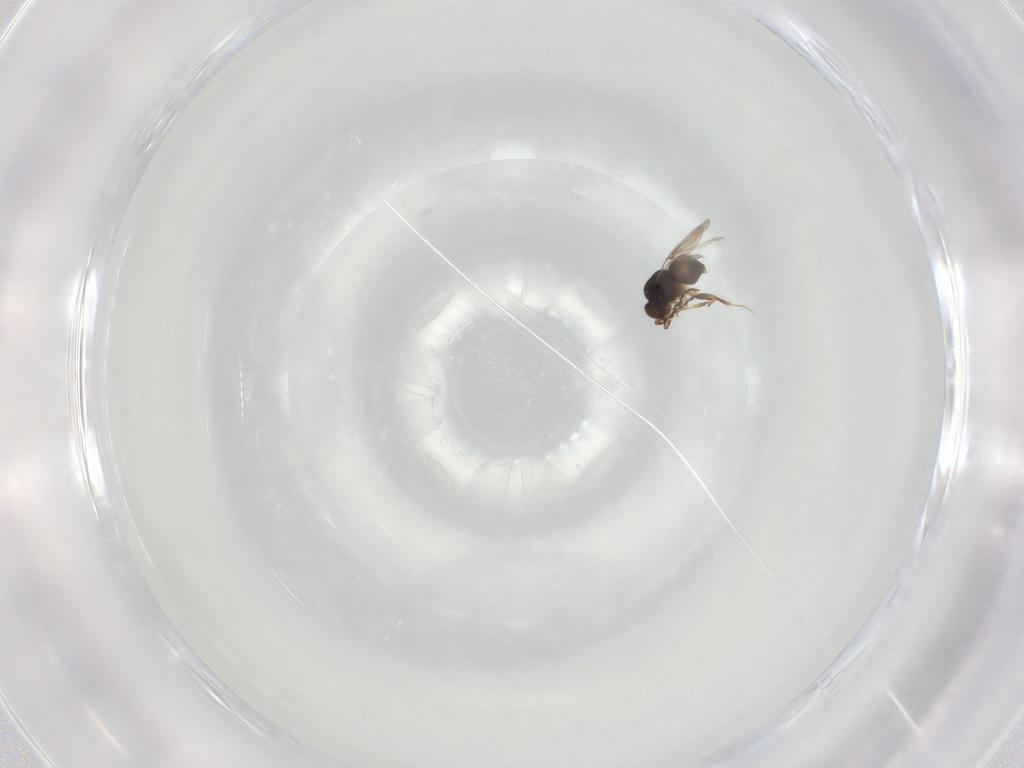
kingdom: Animalia
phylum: Arthropoda
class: Insecta
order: Hymenoptera
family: Ceraphronidae
